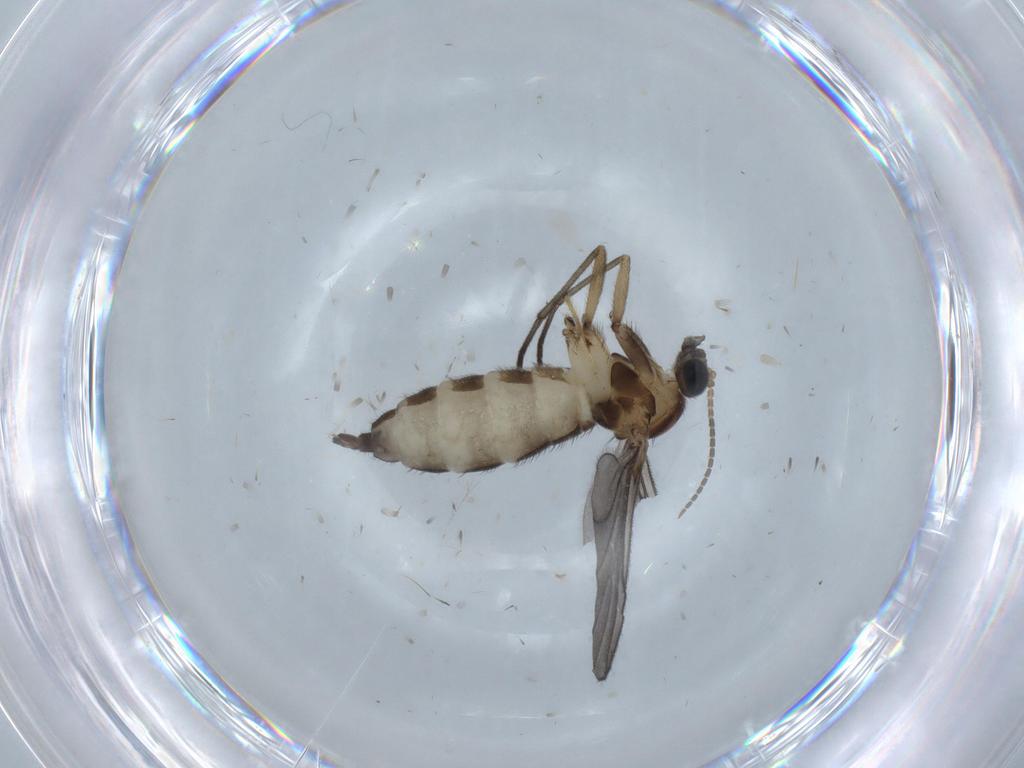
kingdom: Animalia
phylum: Arthropoda
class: Insecta
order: Diptera
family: Sciaridae
